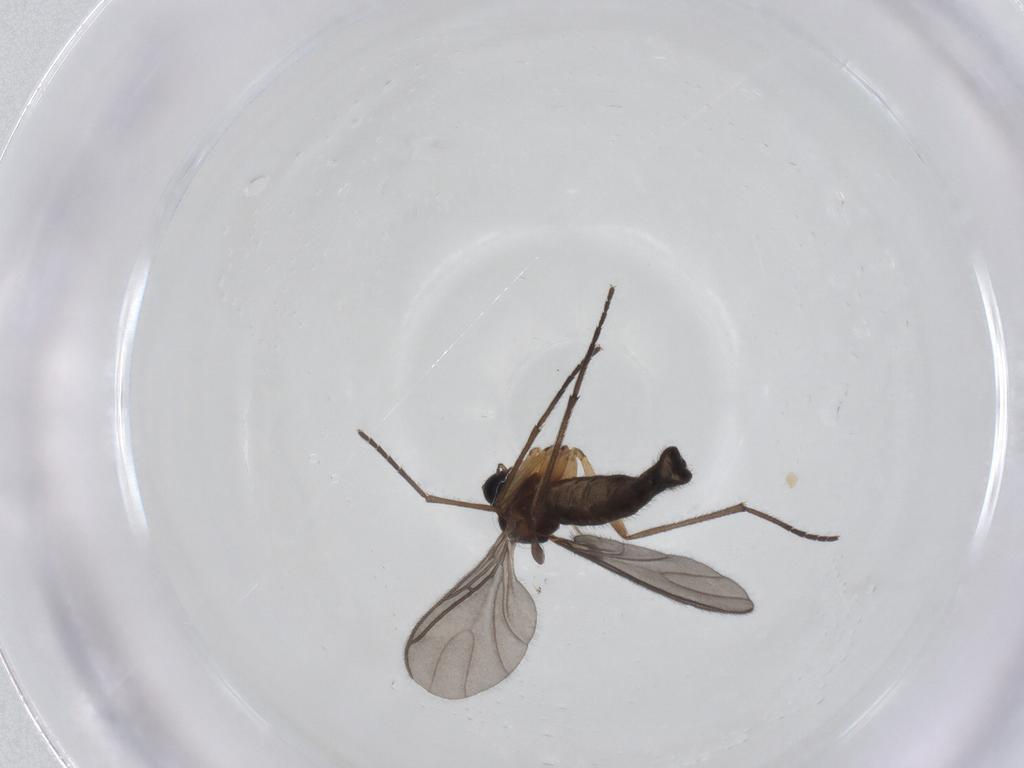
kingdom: Animalia
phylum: Arthropoda
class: Insecta
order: Diptera
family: Sciaridae
